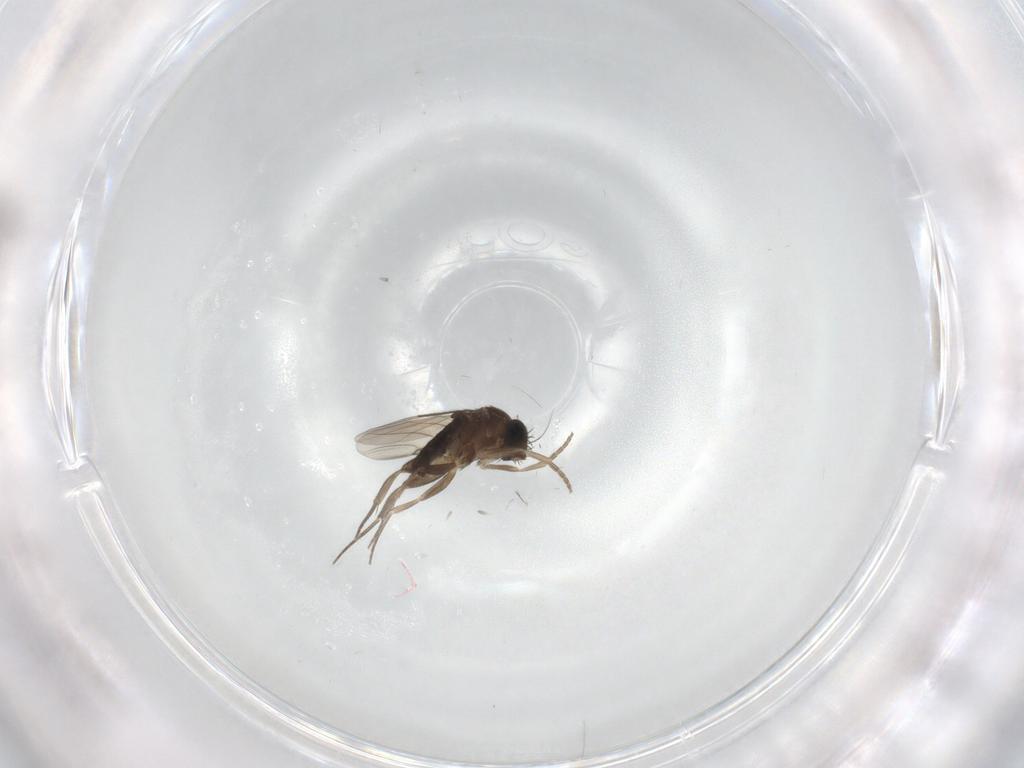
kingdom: Animalia
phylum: Arthropoda
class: Insecta
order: Diptera
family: Phoridae
